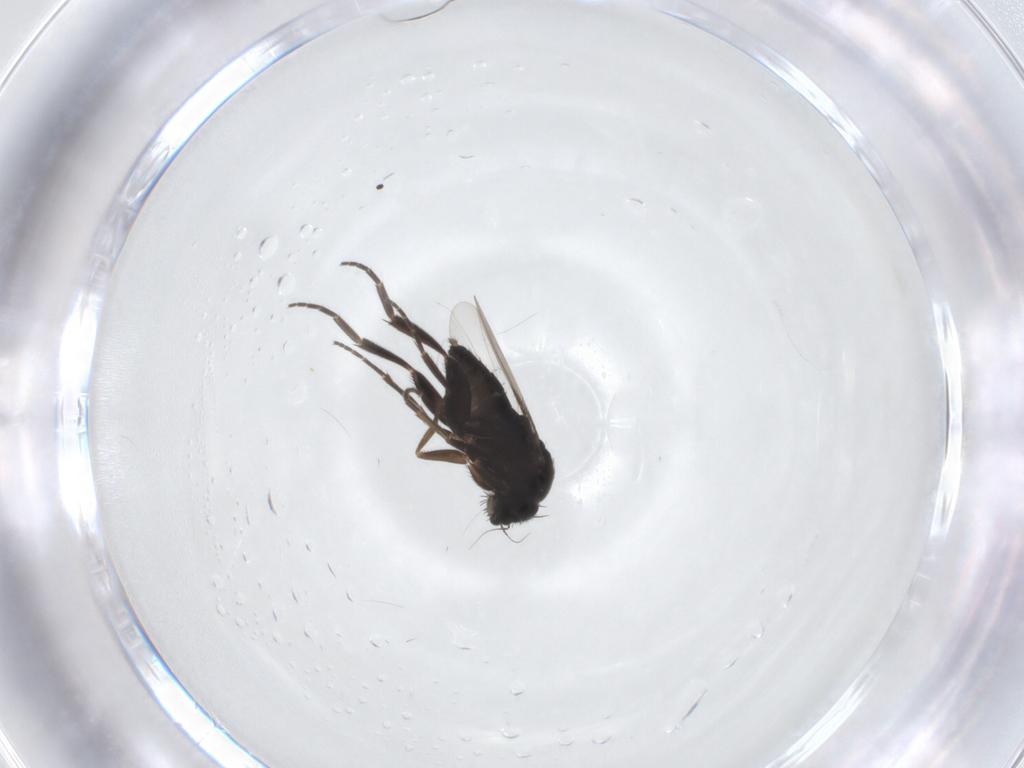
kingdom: Animalia
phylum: Arthropoda
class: Insecta
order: Diptera
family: Phoridae
